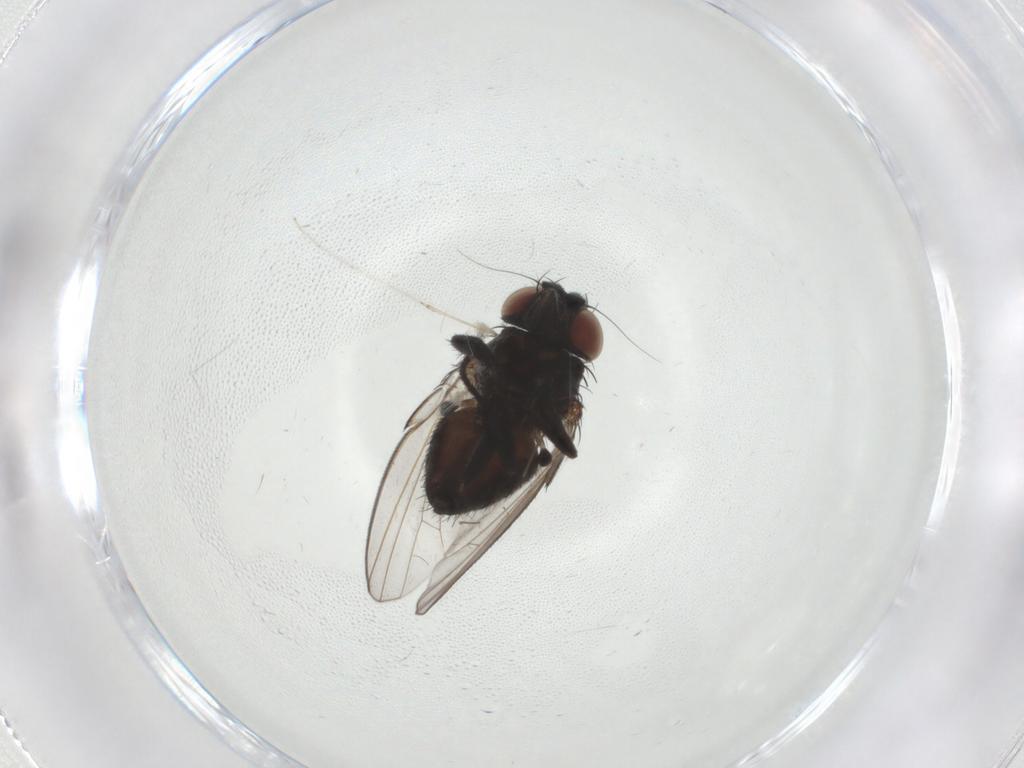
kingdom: Animalia
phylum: Arthropoda
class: Insecta
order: Diptera
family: Milichiidae
